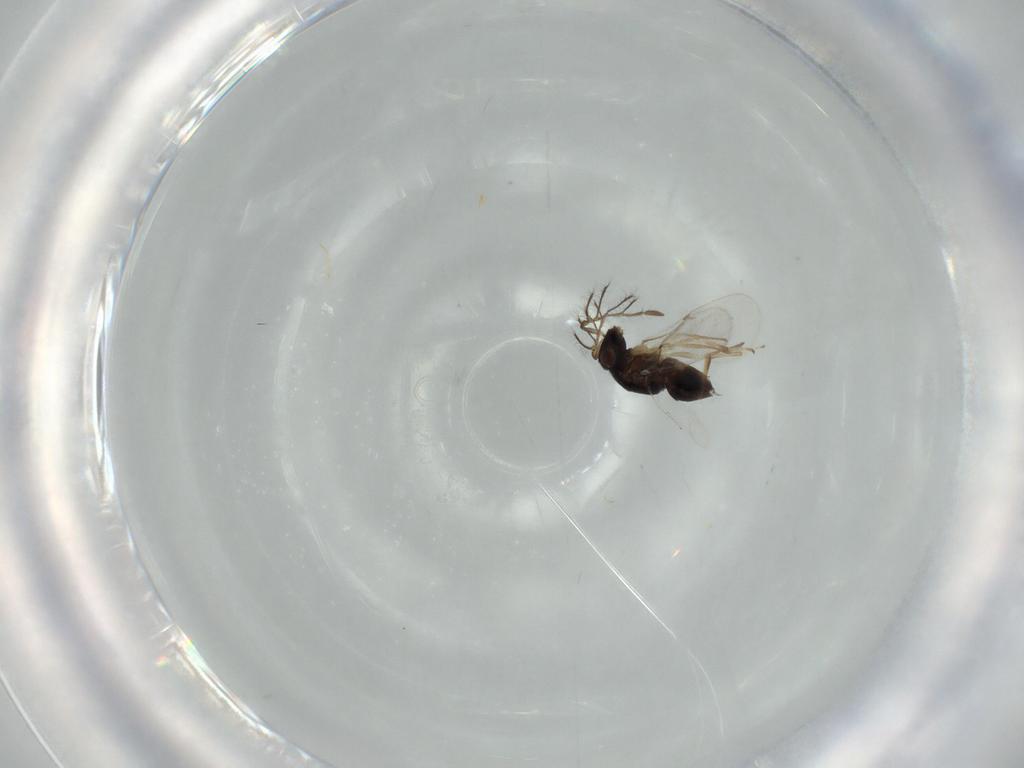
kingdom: Animalia
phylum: Arthropoda
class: Insecta
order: Hymenoptera
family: Encyrtidae
